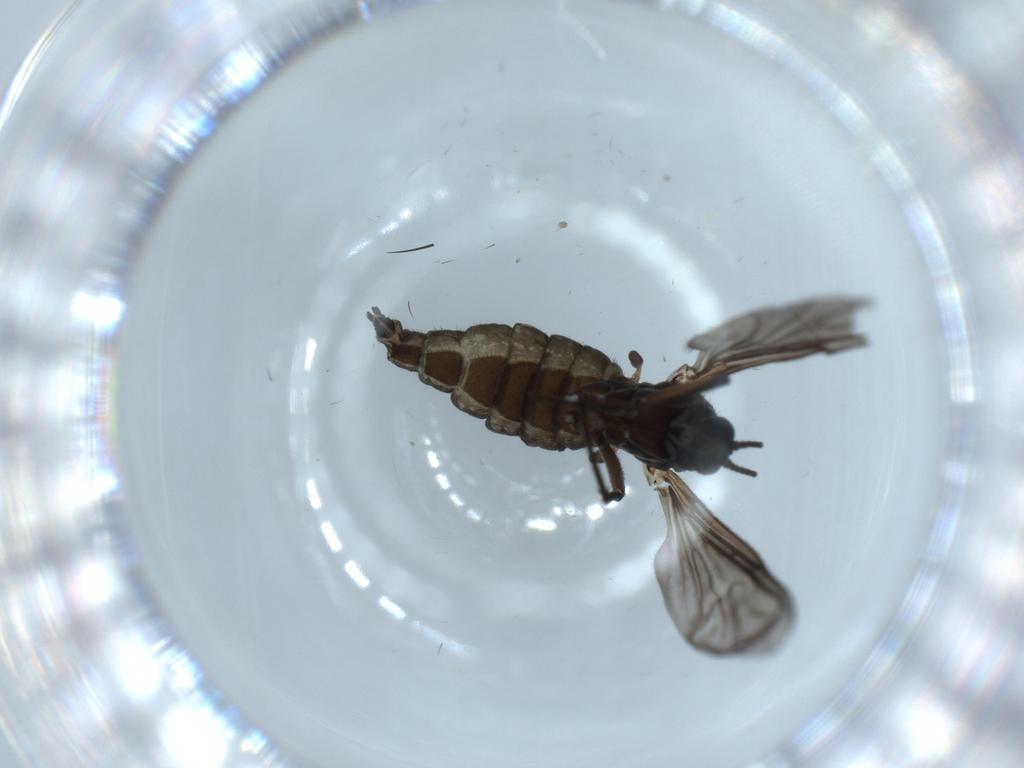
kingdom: Animalia
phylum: Arthropoda
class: Insecta
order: Diptera
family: Sciaridae
